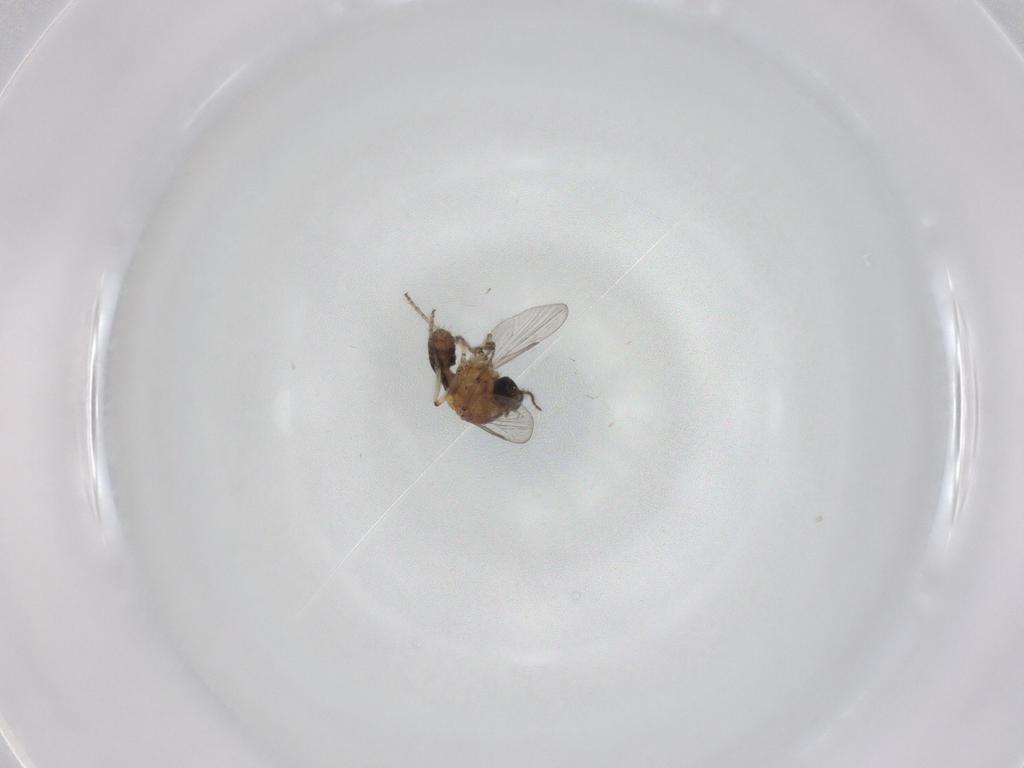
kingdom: Animalia
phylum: Arthropoda
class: Insecta
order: Diptera
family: Ceratopogonidae
